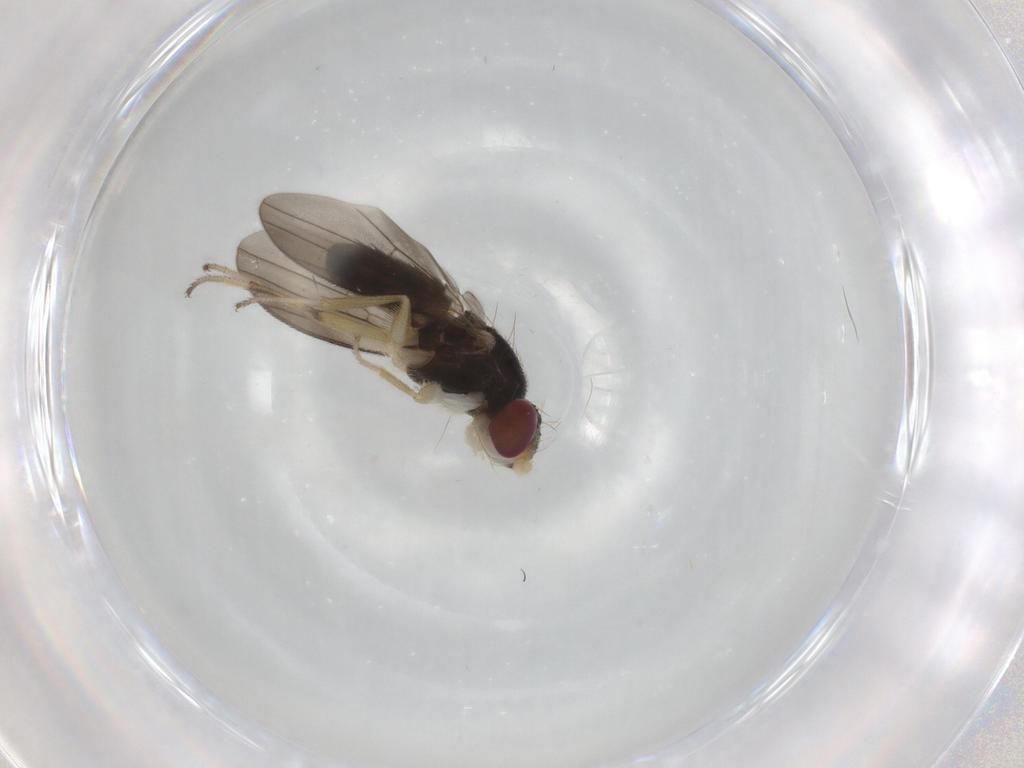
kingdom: Animalia
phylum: Arthropoda
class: Insecta
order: Diptera
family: Clusiidae
